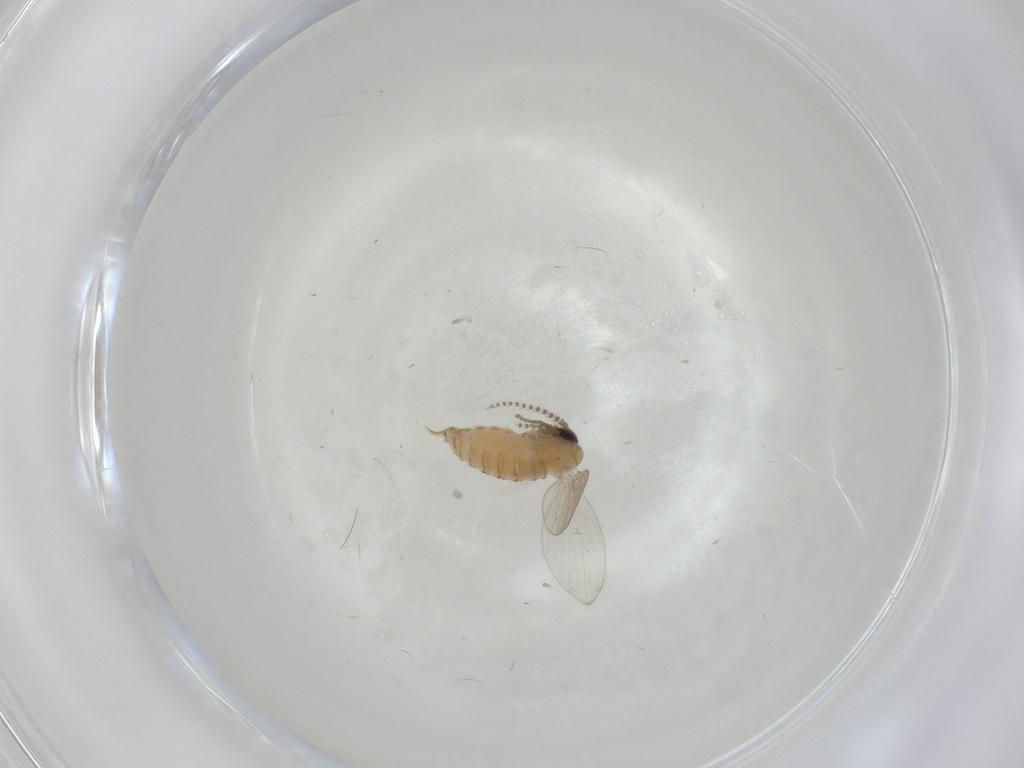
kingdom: Animalia
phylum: Arthropoda
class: Insecta
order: Diptera
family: Psychodidae
